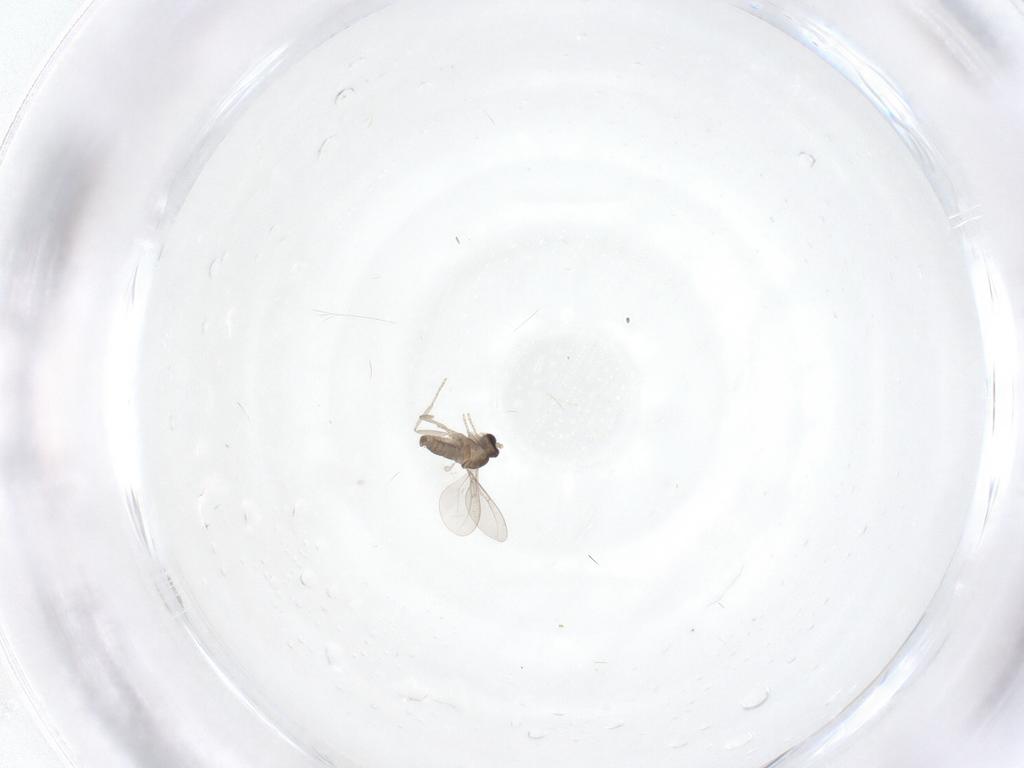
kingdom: Animalia
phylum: Arthropoda
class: Insecta
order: Diptera
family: Cecidomyiidae
